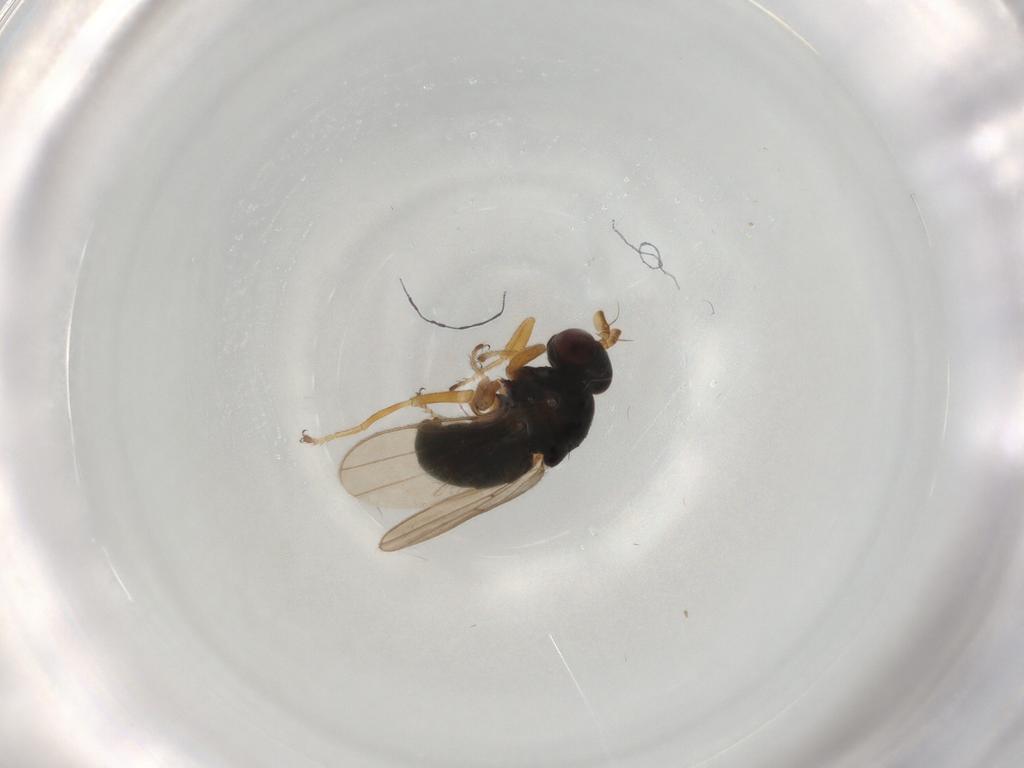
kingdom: Animalia
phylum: Arthropoda
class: Insecta
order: Diptera
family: Ephydridae
